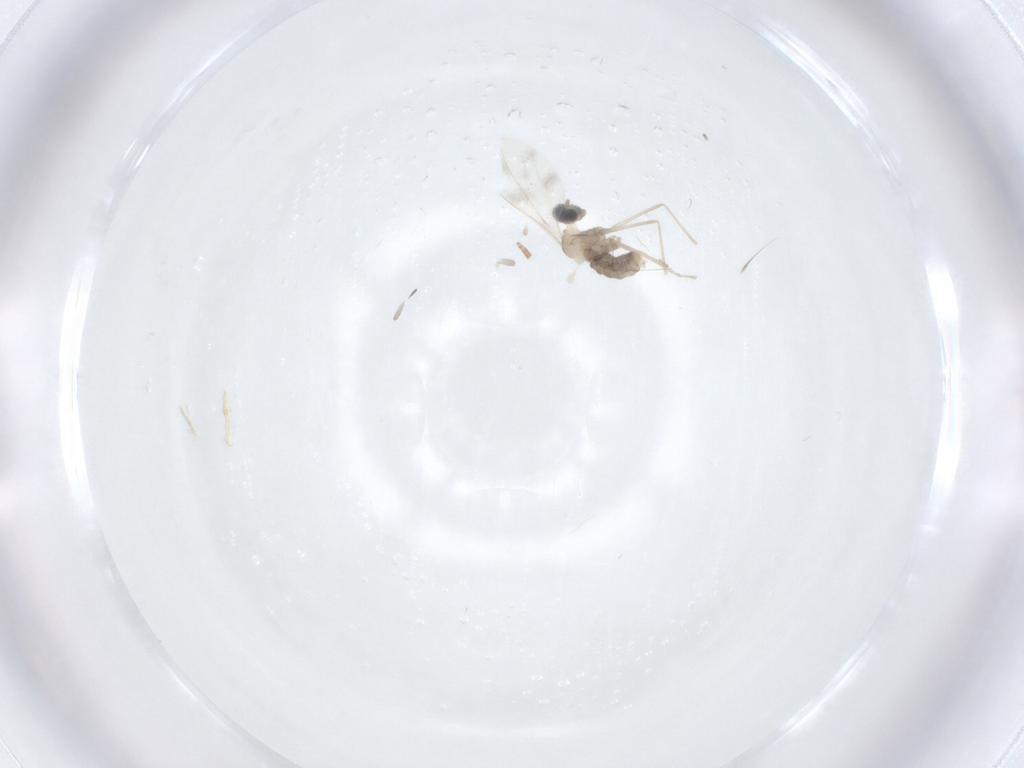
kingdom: Animalia
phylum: Arthropoda
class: Insecta
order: Diptera
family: Cecidomyiidae
